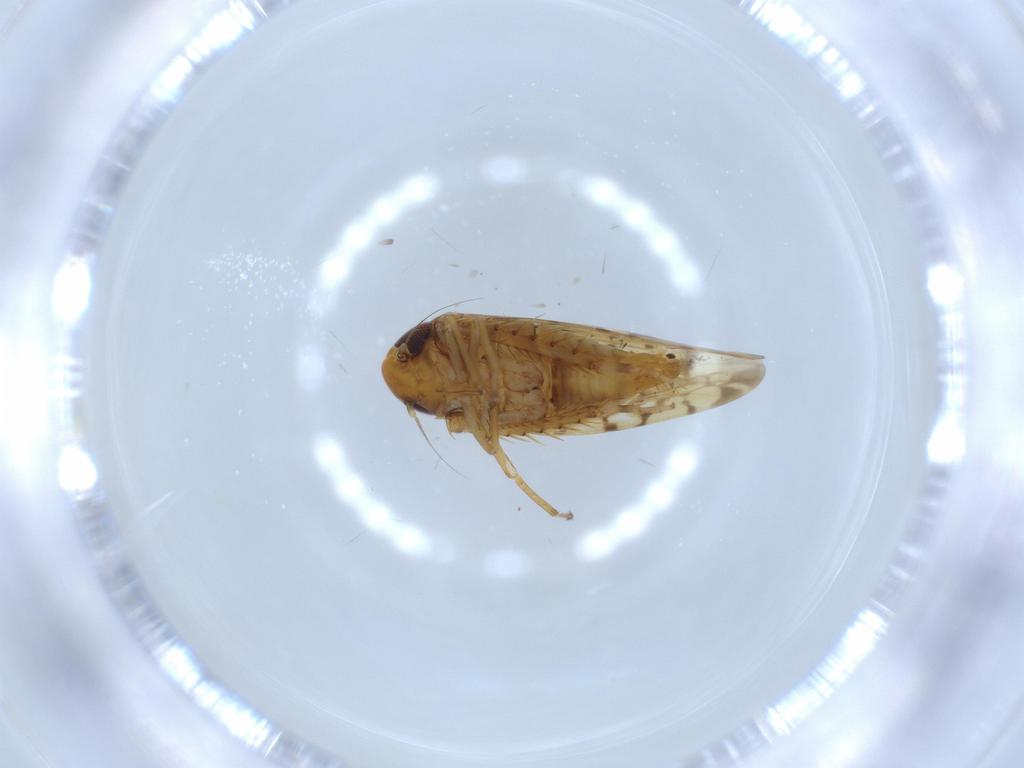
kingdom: Animalia
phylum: Arthropoda
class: Insecta
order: Hemiptera
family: Cicadellidae
